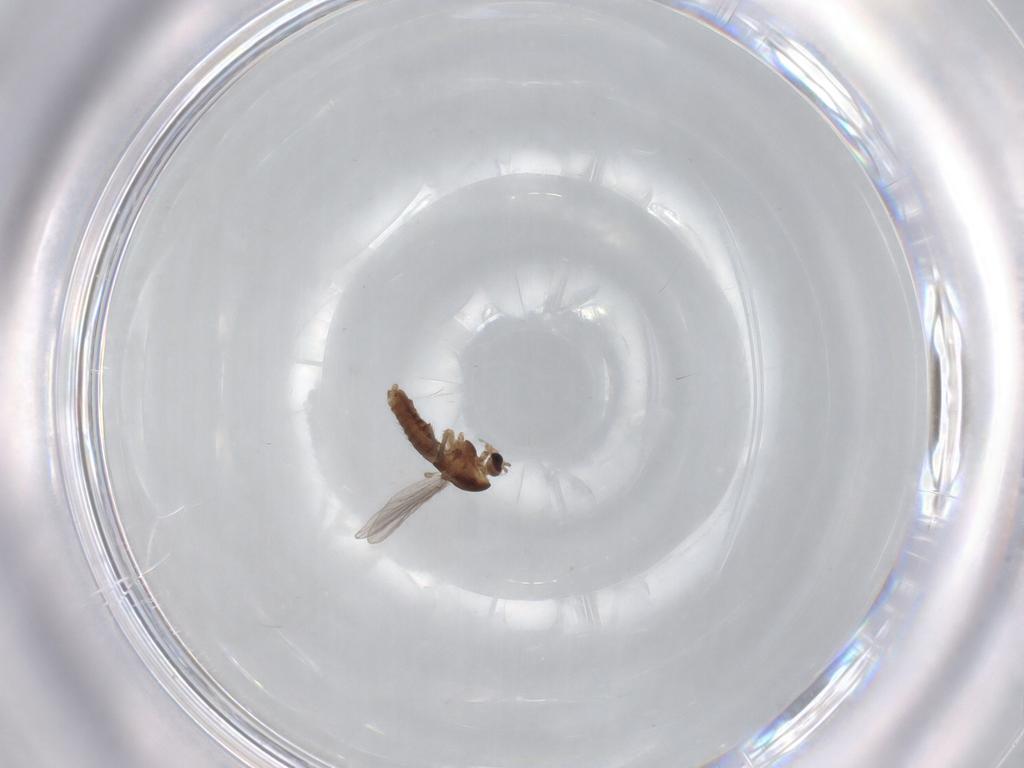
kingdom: Animalia
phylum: Arthropoda
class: Insecta
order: Diptera
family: Chironomidae
